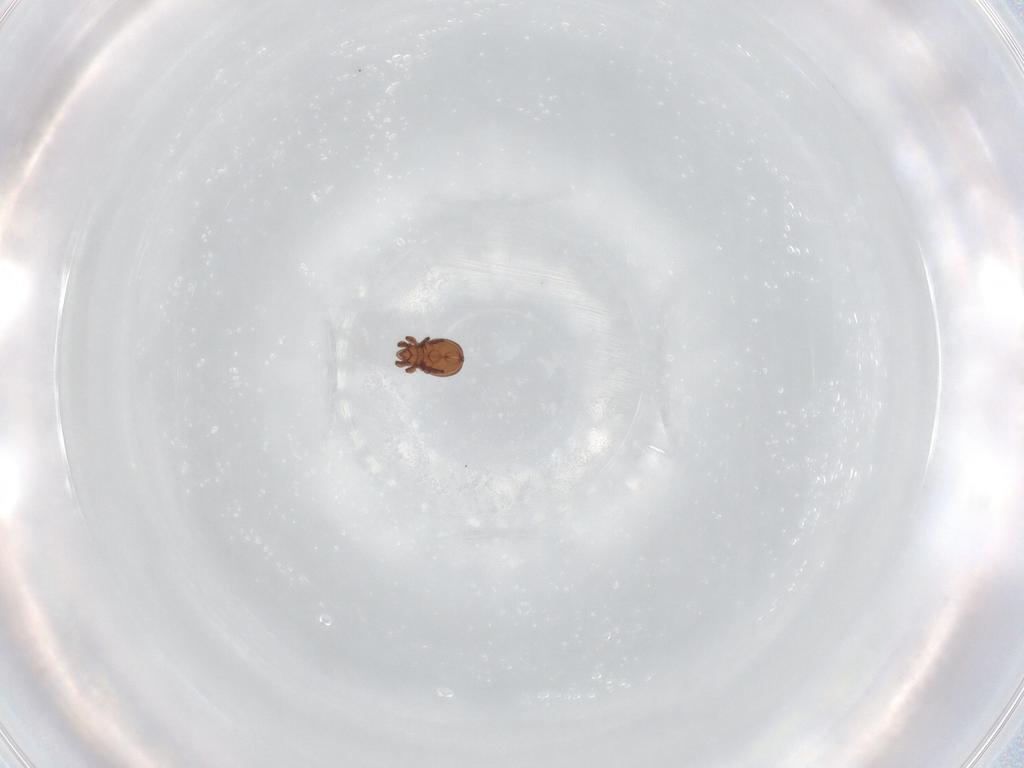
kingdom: Animalia
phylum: Arthropoda
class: Arachnida
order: Sarcoptiformes
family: Eremaeidae
